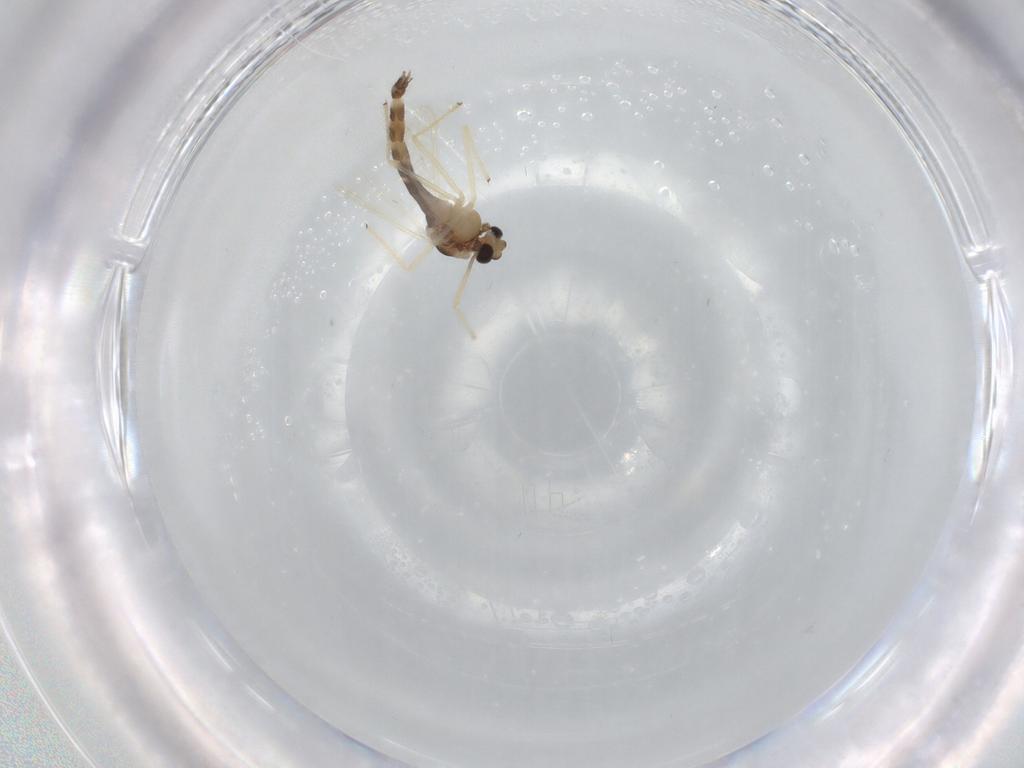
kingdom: Animalia
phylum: Arthropoda
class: Insecta
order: Diptera
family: Chironomidae
